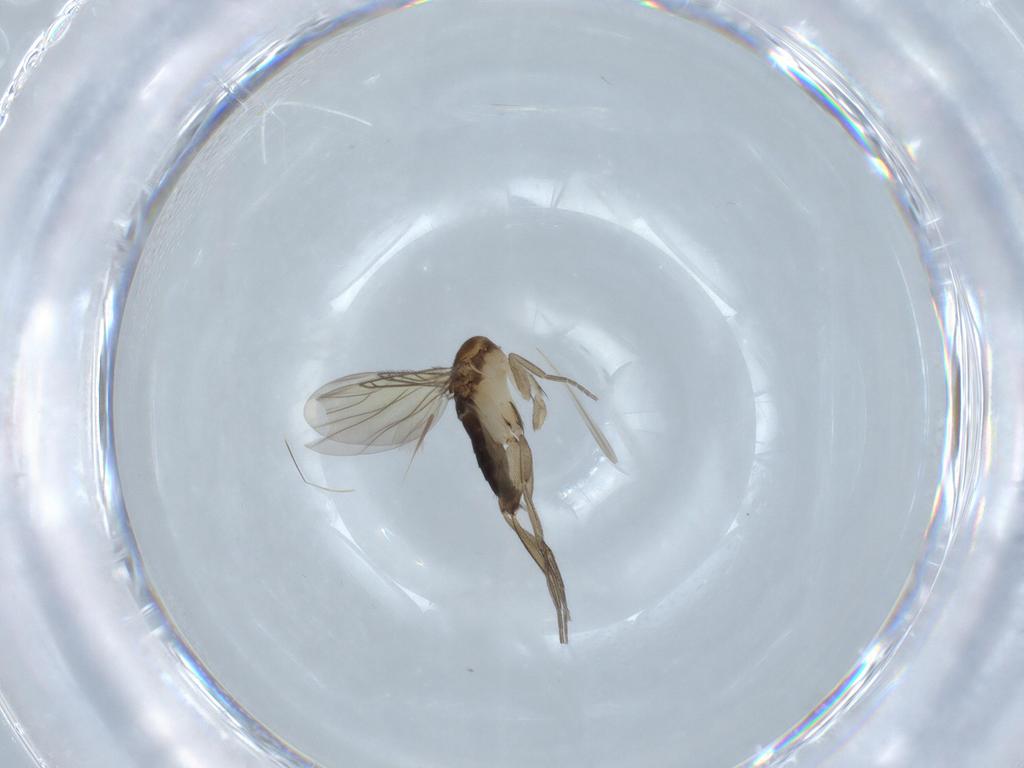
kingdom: Animalia
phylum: Arthropoda
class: Insecta
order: Diptera
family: Phoridae
